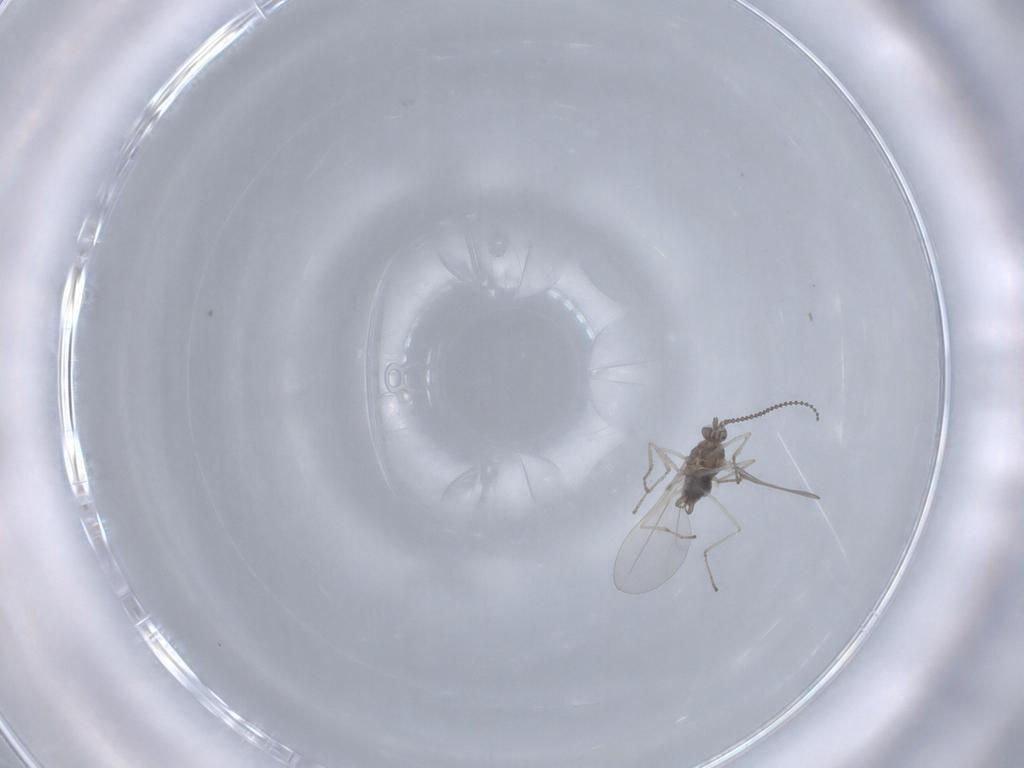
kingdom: Animalia
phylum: Arthropoda
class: Insecta
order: Diptera
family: Cecidomyiidae
